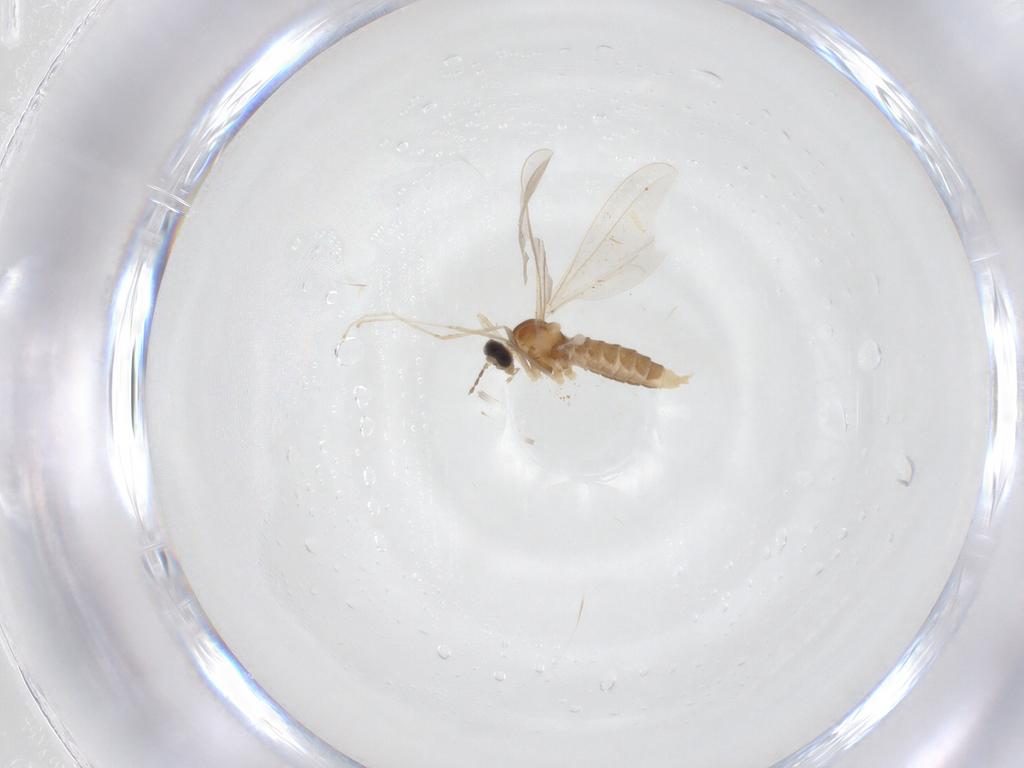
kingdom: Animalia
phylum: Arthropoda
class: Insecta
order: Diptera
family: Cecidomyiidae
